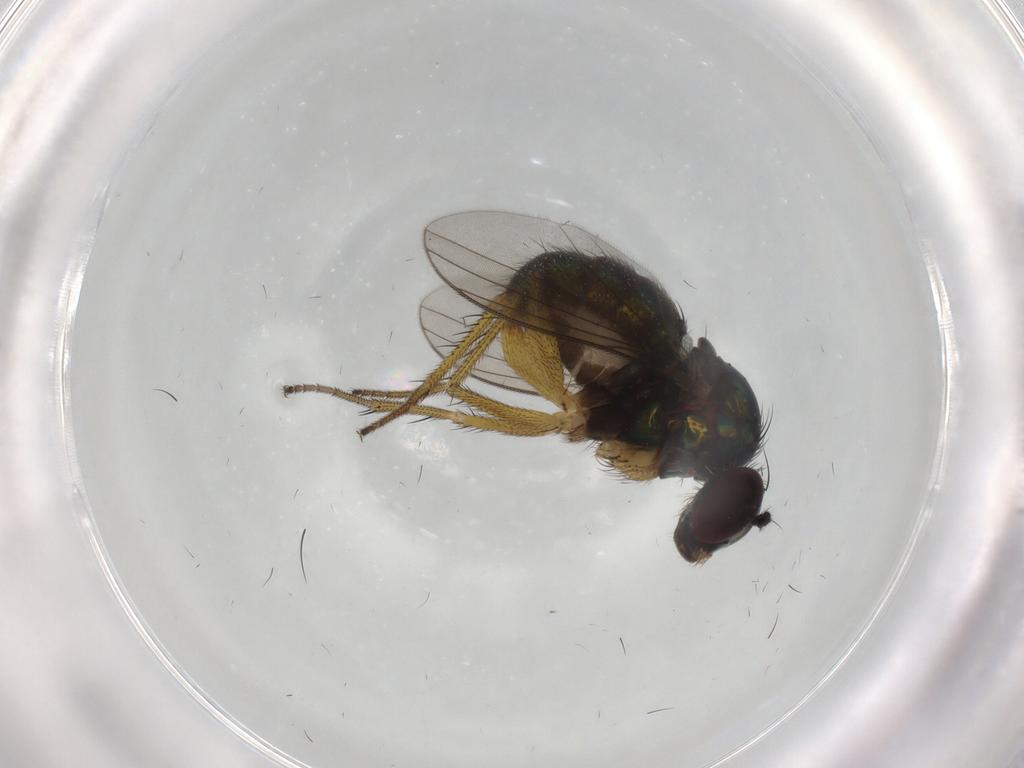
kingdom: Animalia
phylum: Arthropoda
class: Insecta
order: Diptera
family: Dolichopodidae
